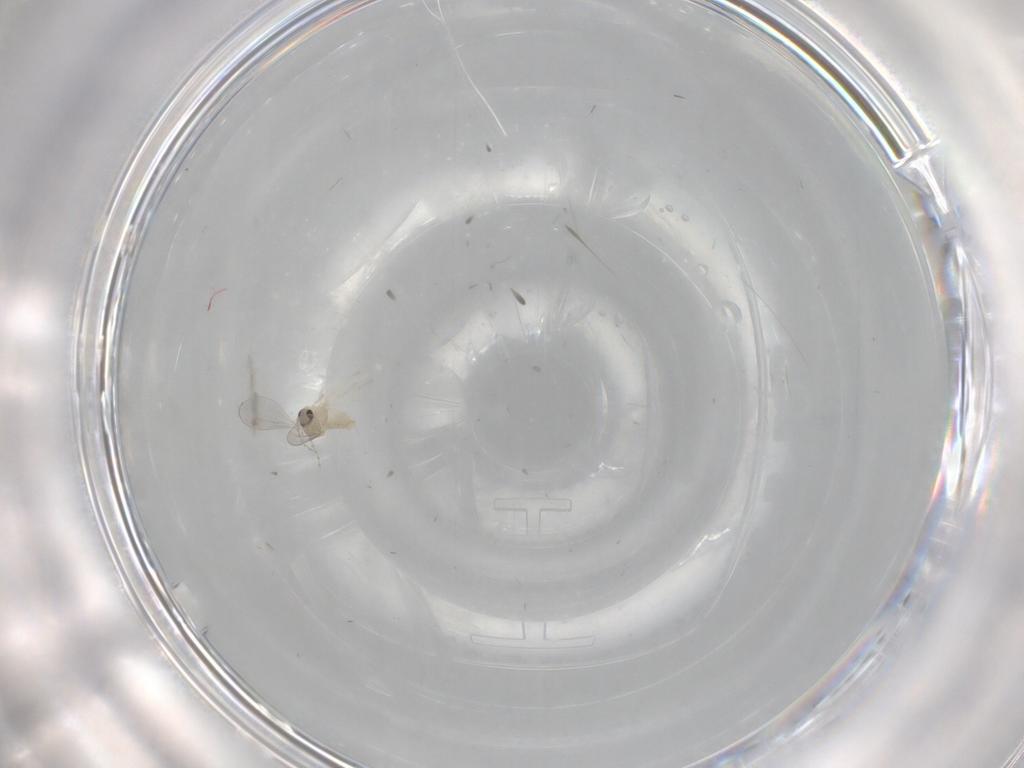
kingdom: Animalia
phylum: Arthropoda
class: Insecta
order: Diptera
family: Cecidomyiidae
